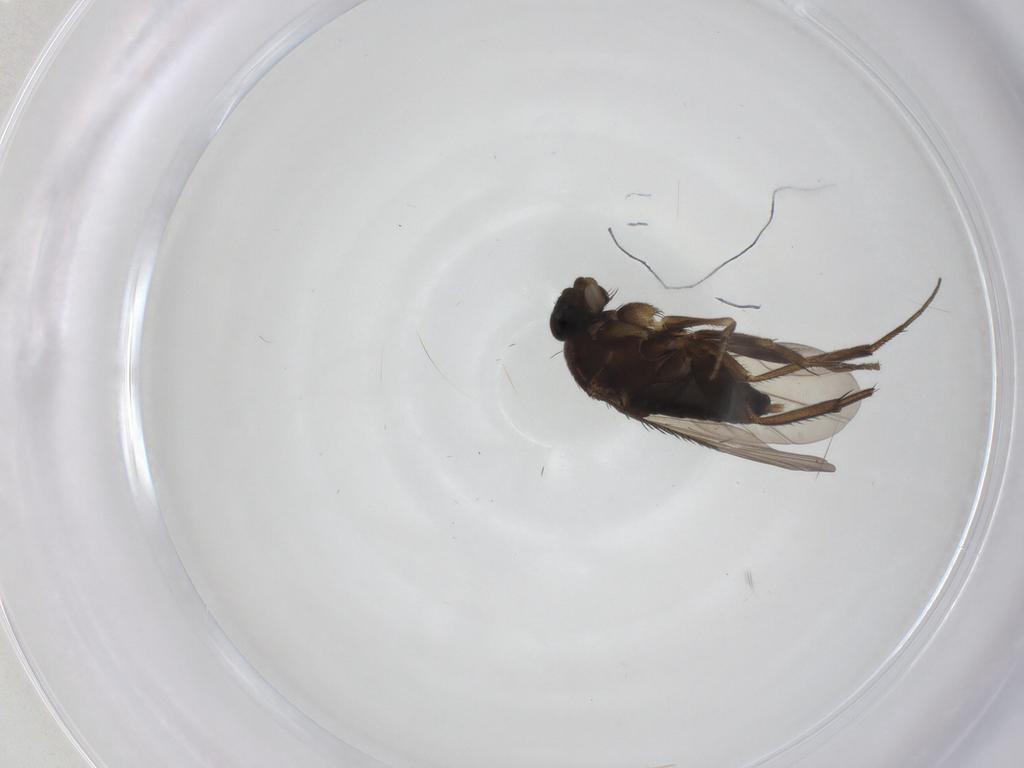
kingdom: Animalia
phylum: Arthropoda
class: Insecta
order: Diptera
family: Phoridae
